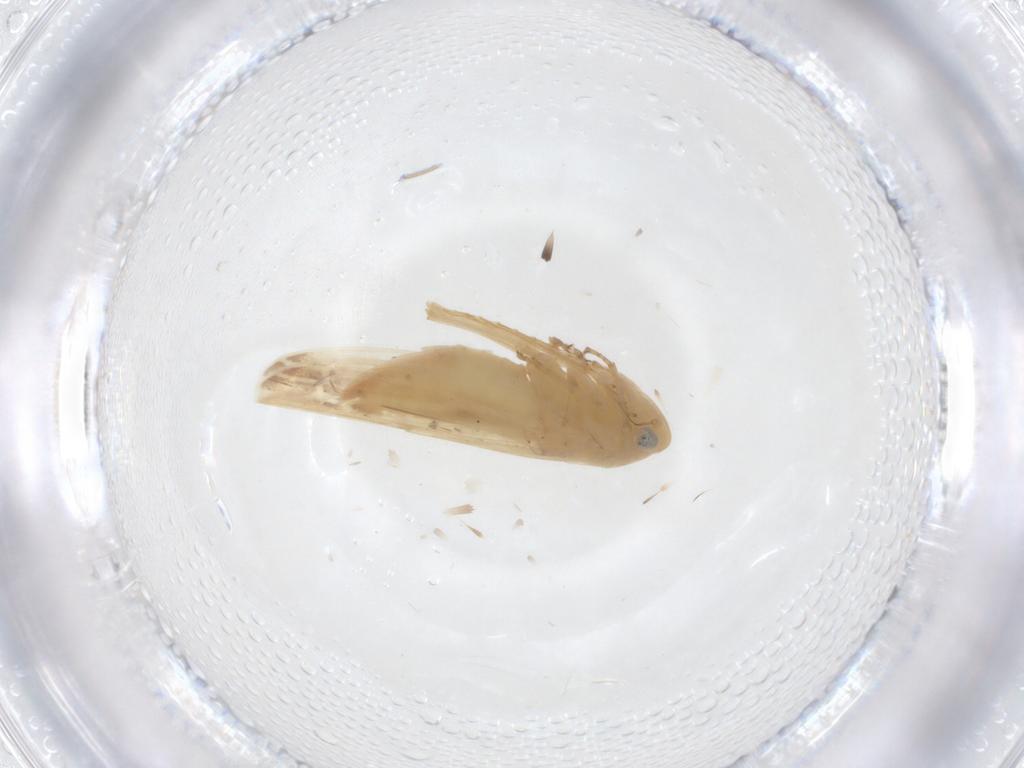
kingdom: Animalia
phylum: Arthropoda
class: Insecta
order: Hemiptera
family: Cicadellidae
